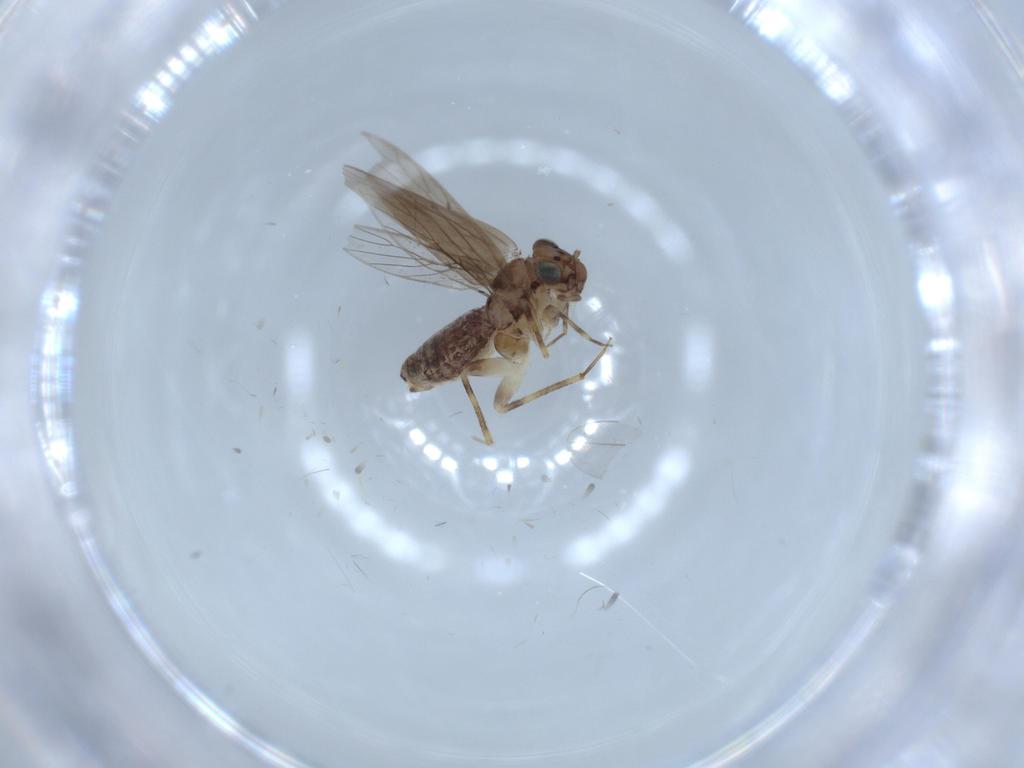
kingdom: Animalia
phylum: Arthropoda
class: Insecta
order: Psocodea
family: Lepidopsocidae
